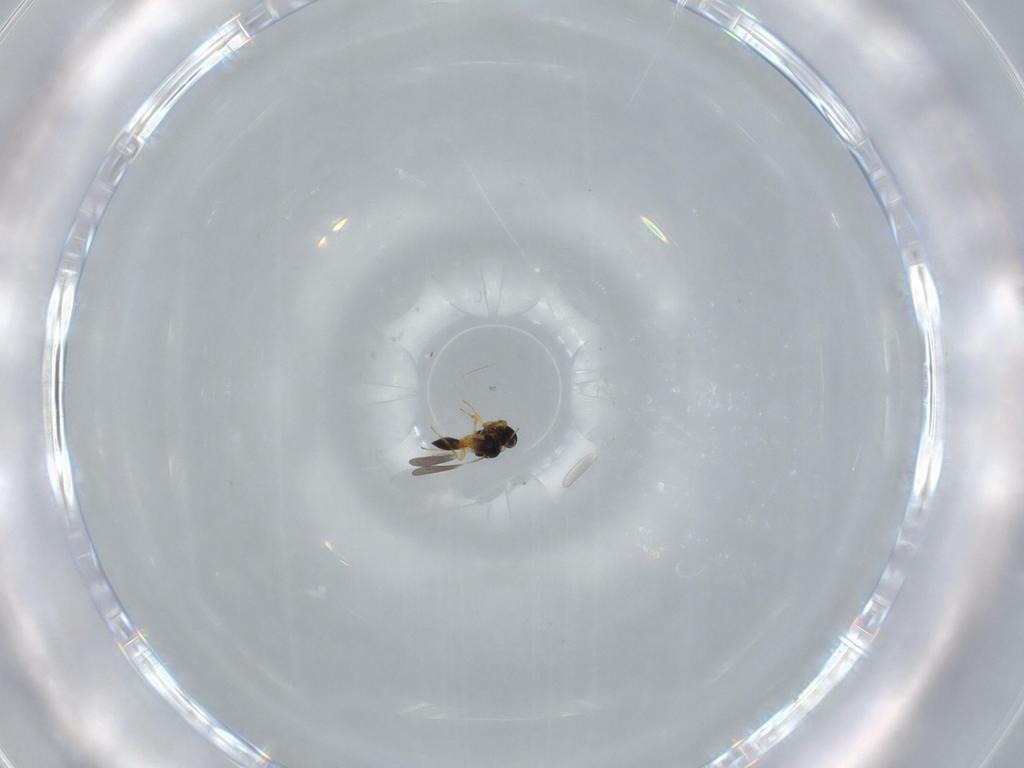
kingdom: Animalia
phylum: Arthropoda
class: Insecta
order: Hymenoptera
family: Platygastridae
